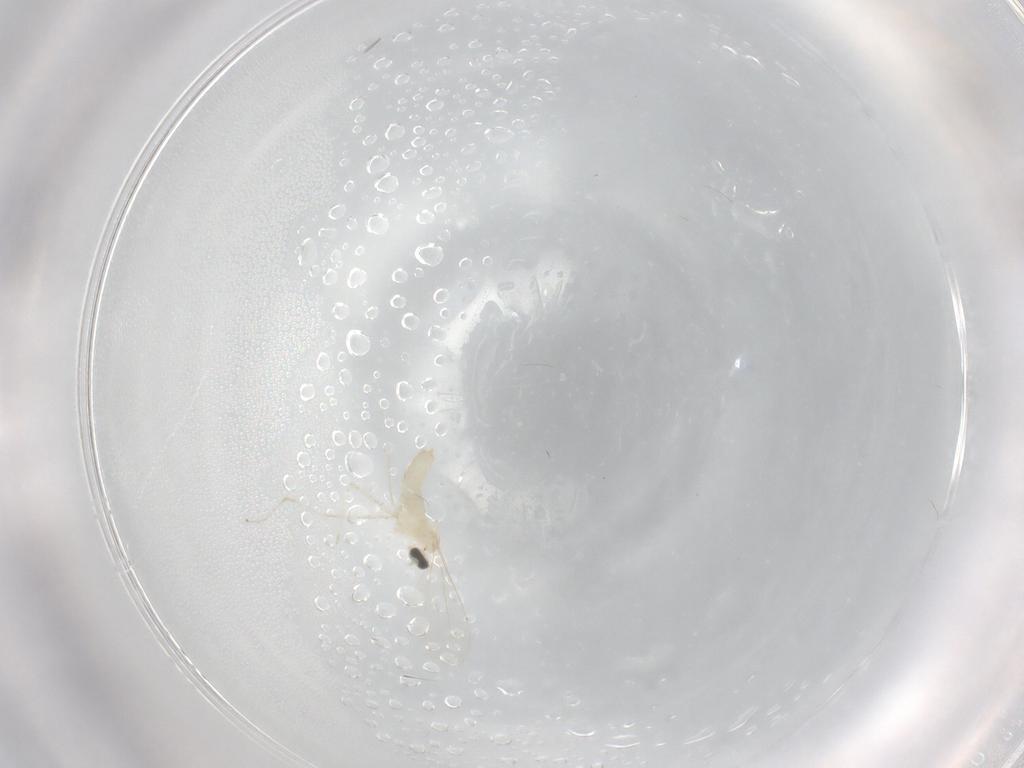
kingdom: Animalia
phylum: Arthropoda
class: Insecta
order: Diptera
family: Cecidomyiidae
